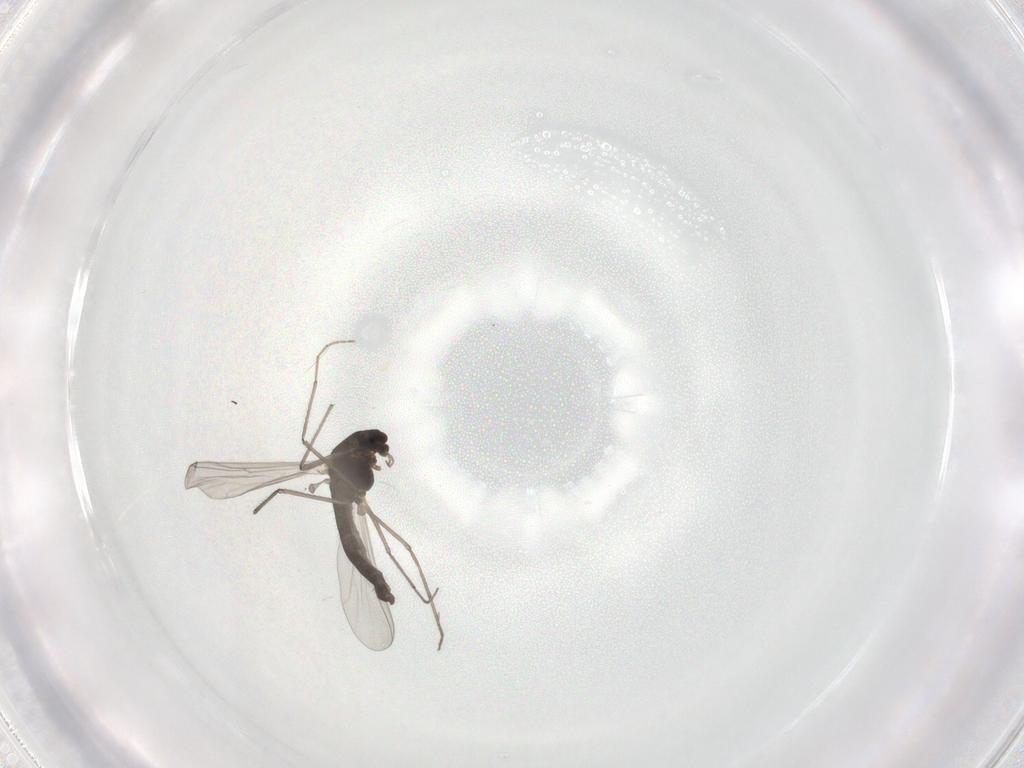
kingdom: Animalia
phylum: Arthropoda
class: Insecta
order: Diptera
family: Chironomidae
